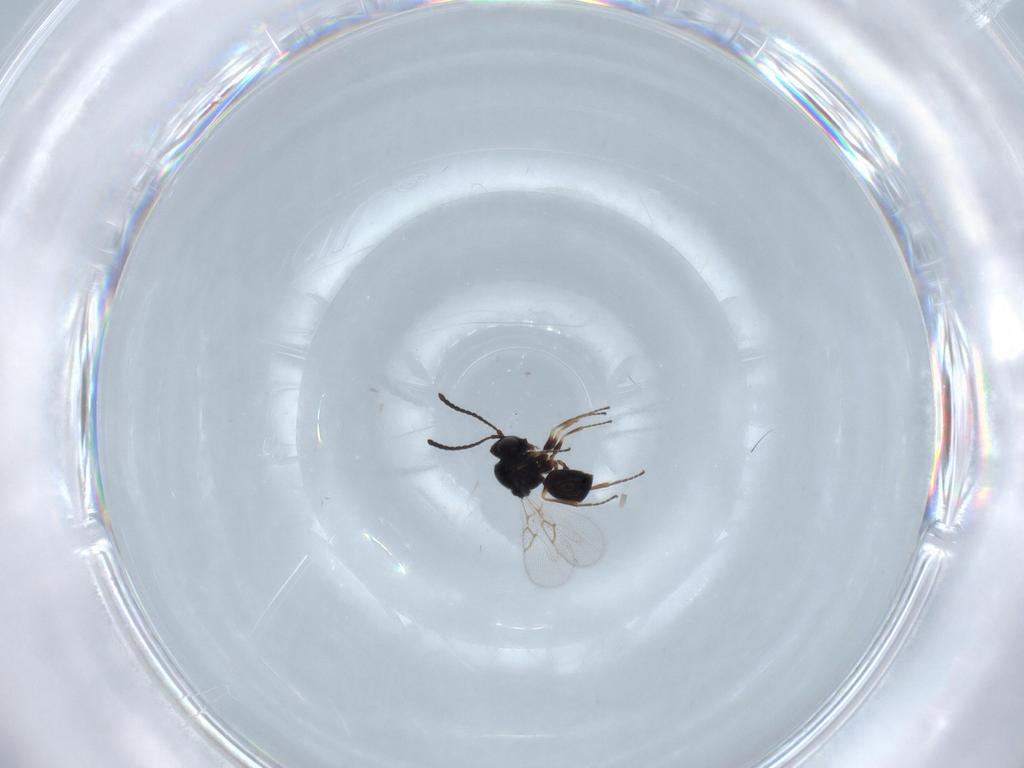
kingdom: Animalia
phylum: Arthropoda
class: Insecta
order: Hymenoptera
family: Figitidae
